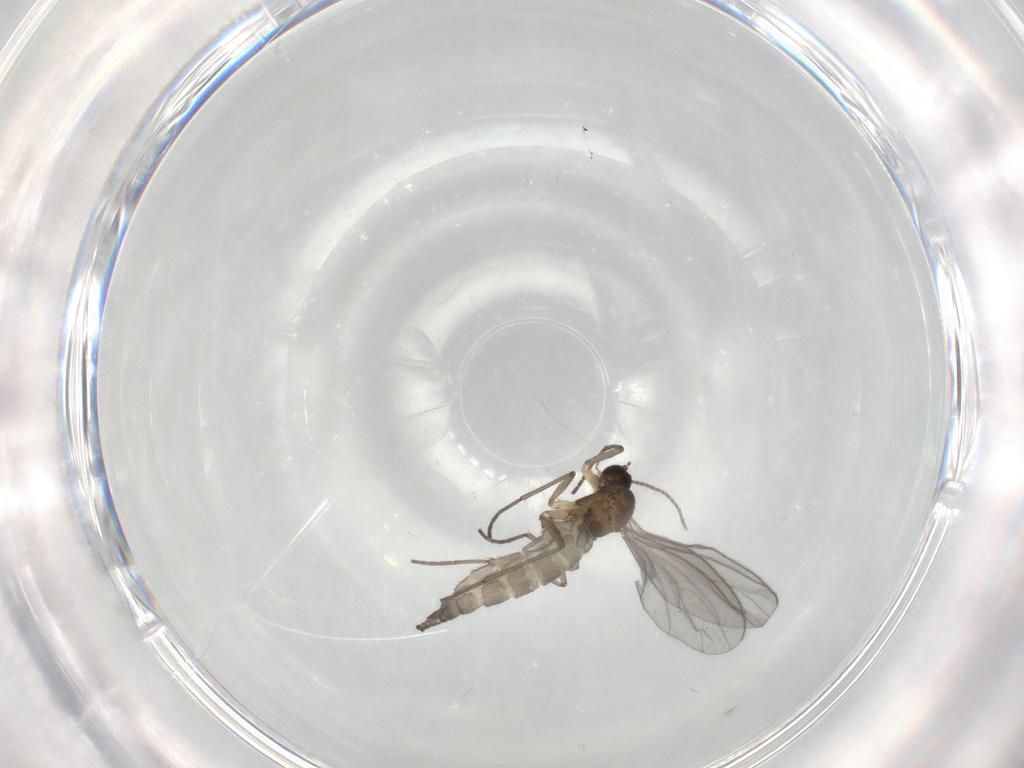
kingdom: Animalia
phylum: Arthropoda
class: Insecta
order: Diptera
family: Sciaridae
